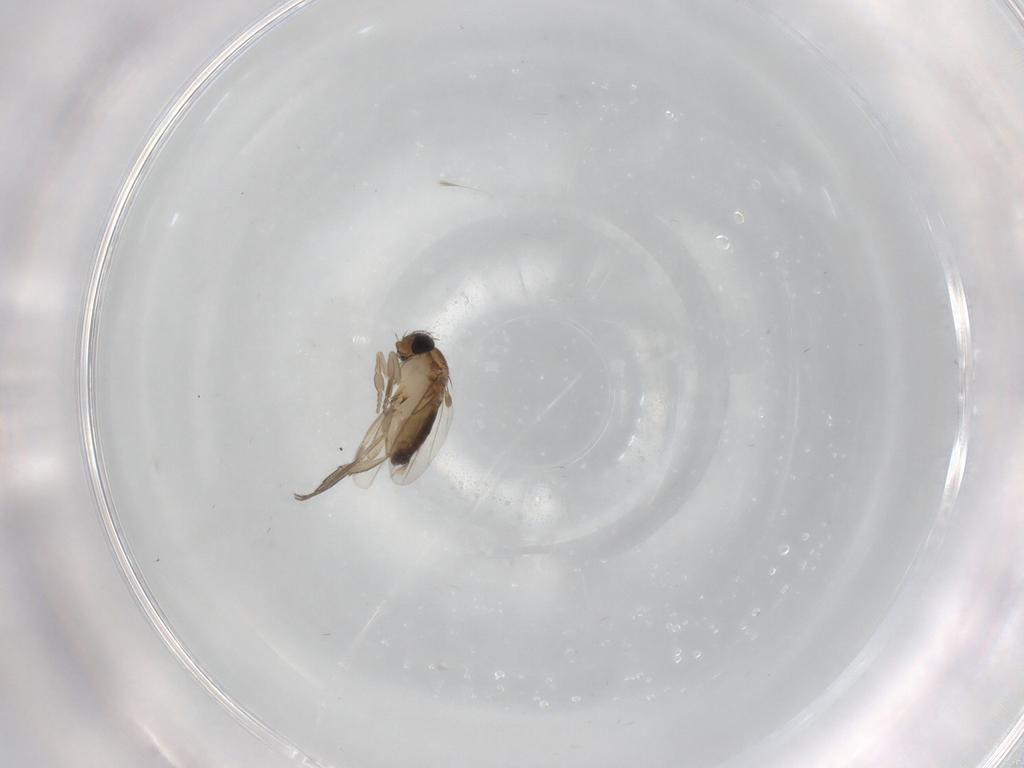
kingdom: Animalia
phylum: Arthropoda
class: Insecta
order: Diptera
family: Phoridae
